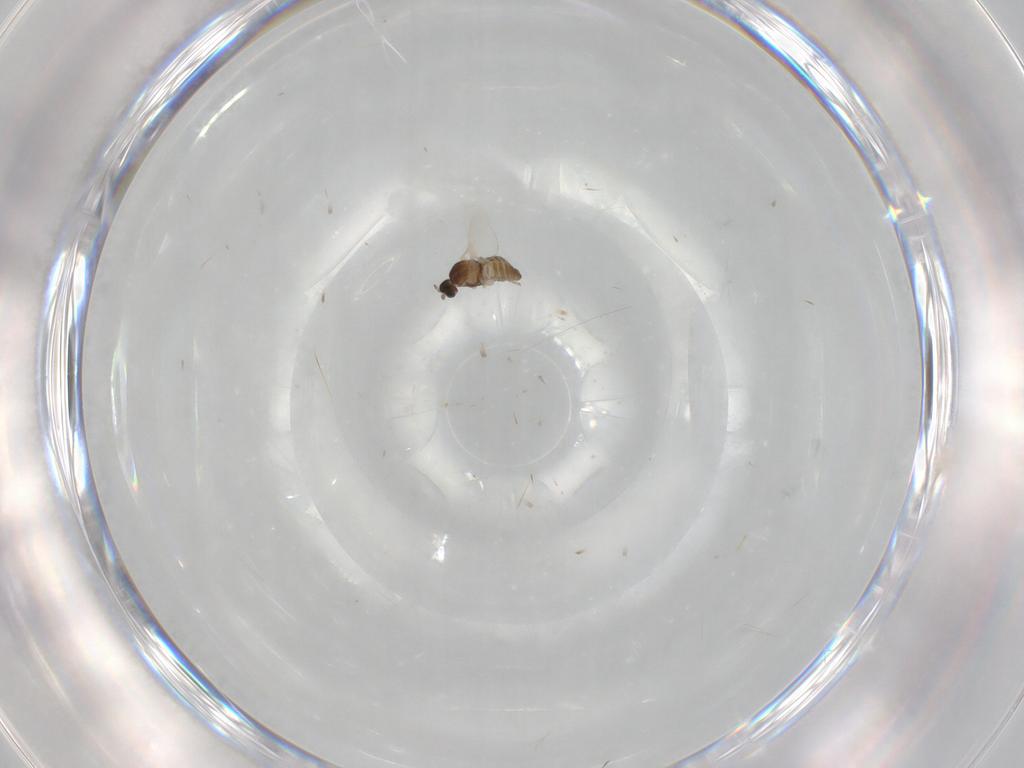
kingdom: Animalia
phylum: Arthropoda
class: Insecta
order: Diptera
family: Cecidomyiidae
